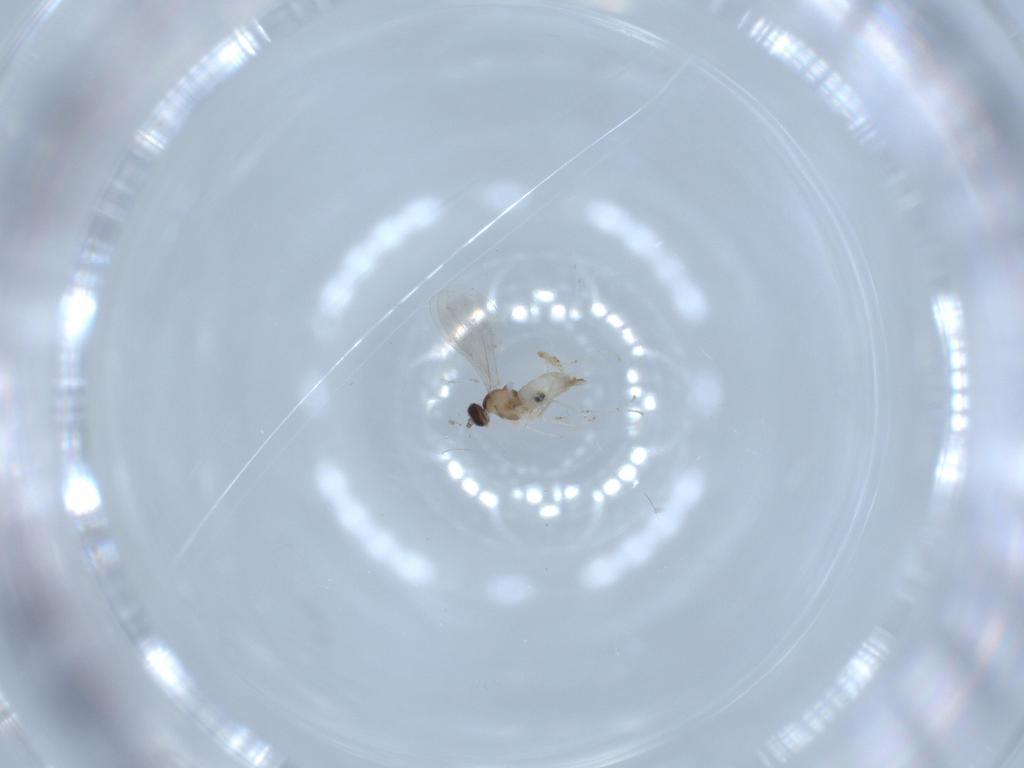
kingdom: Animalia
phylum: Arthropoda
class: Insecta
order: Diptera
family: Cecidomyiidae
